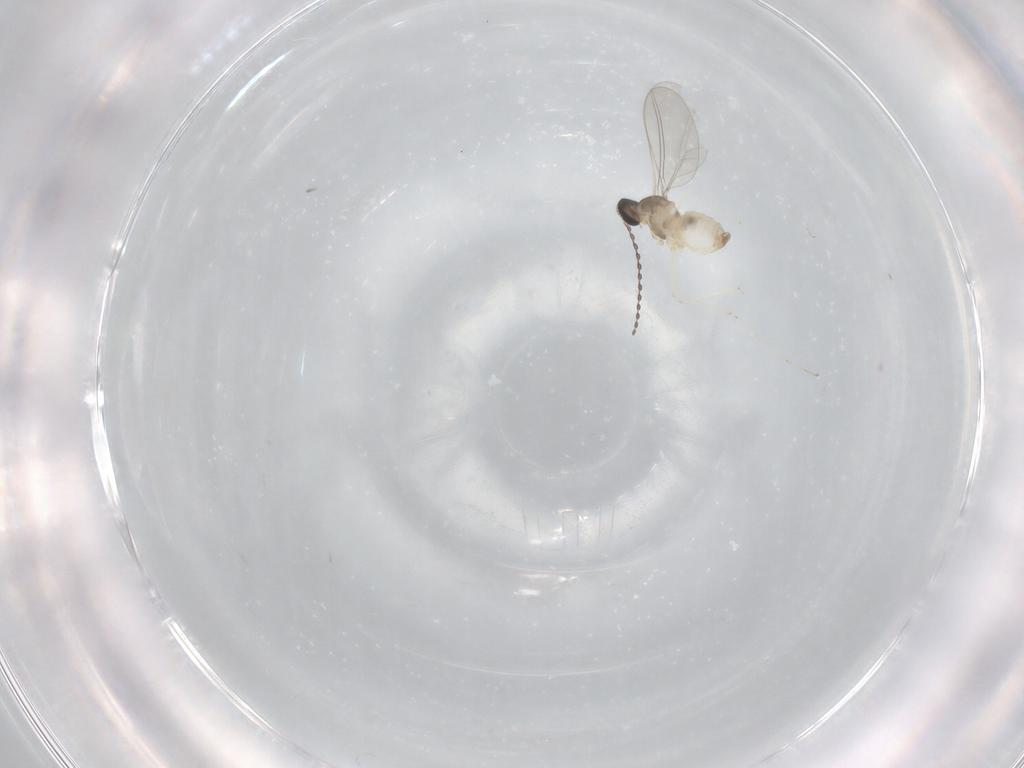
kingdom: Animalia
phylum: Arthropoda
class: Insecta
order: Diptera
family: Cecidomyiidae
